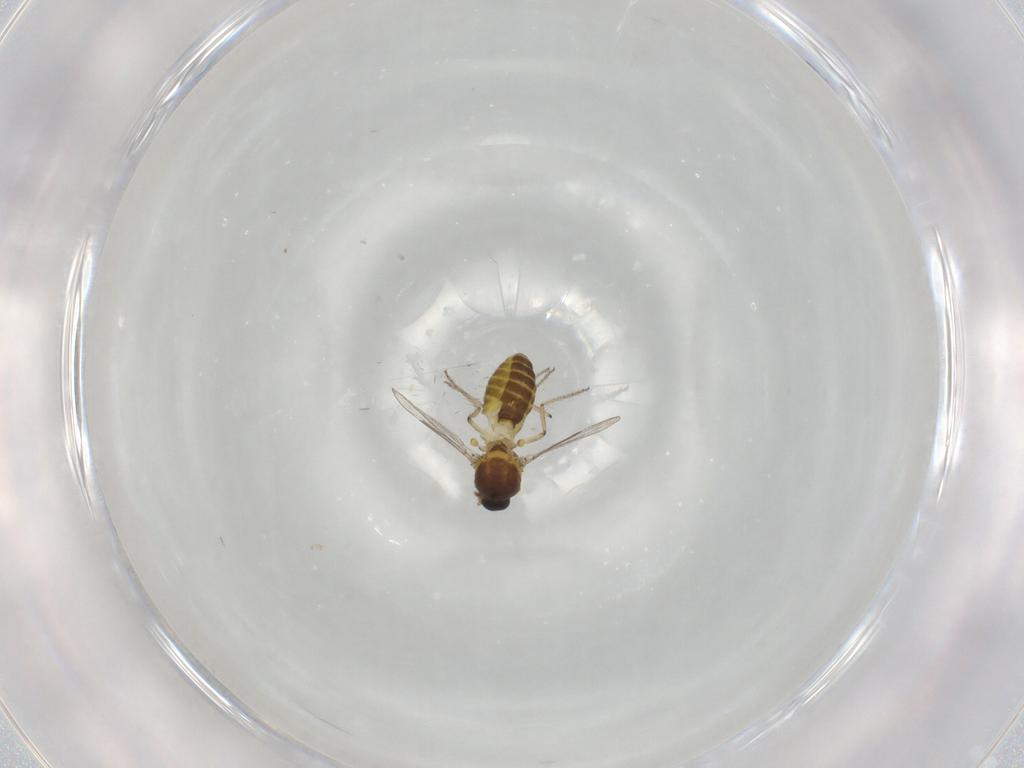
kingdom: Animalia
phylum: Arthropoda
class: Insecta
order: Diptera
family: Ceratopogonidae
